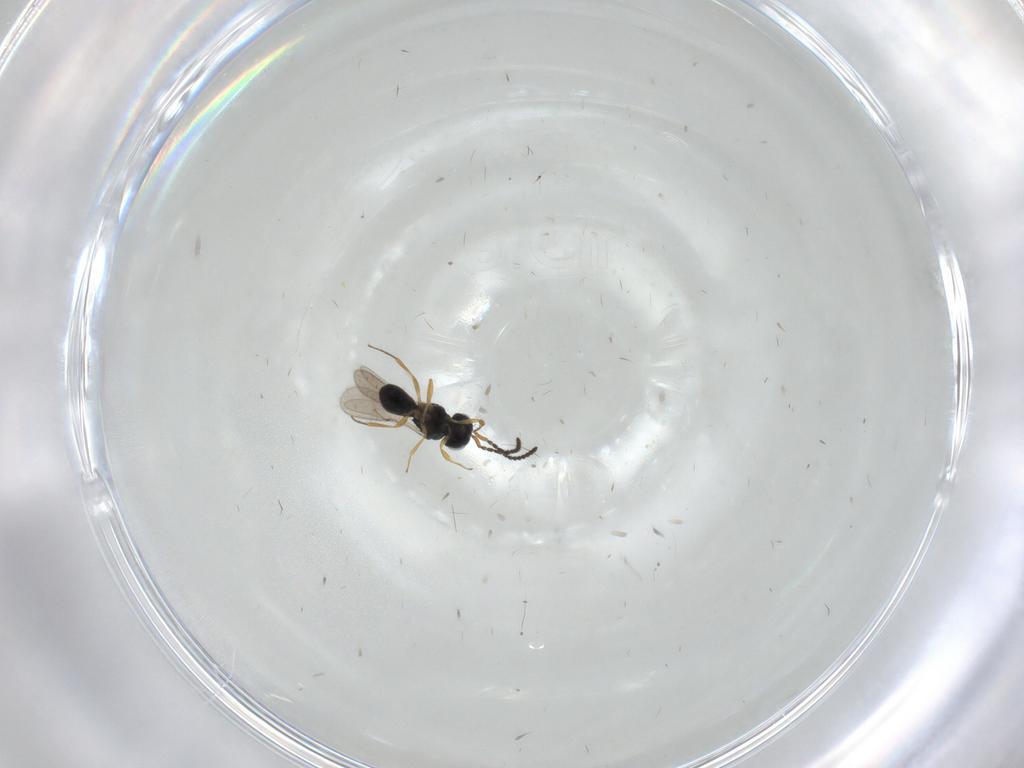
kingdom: Animalia
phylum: Arthropoda
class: Insecta
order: Hymenoptera
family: Scelionidae
